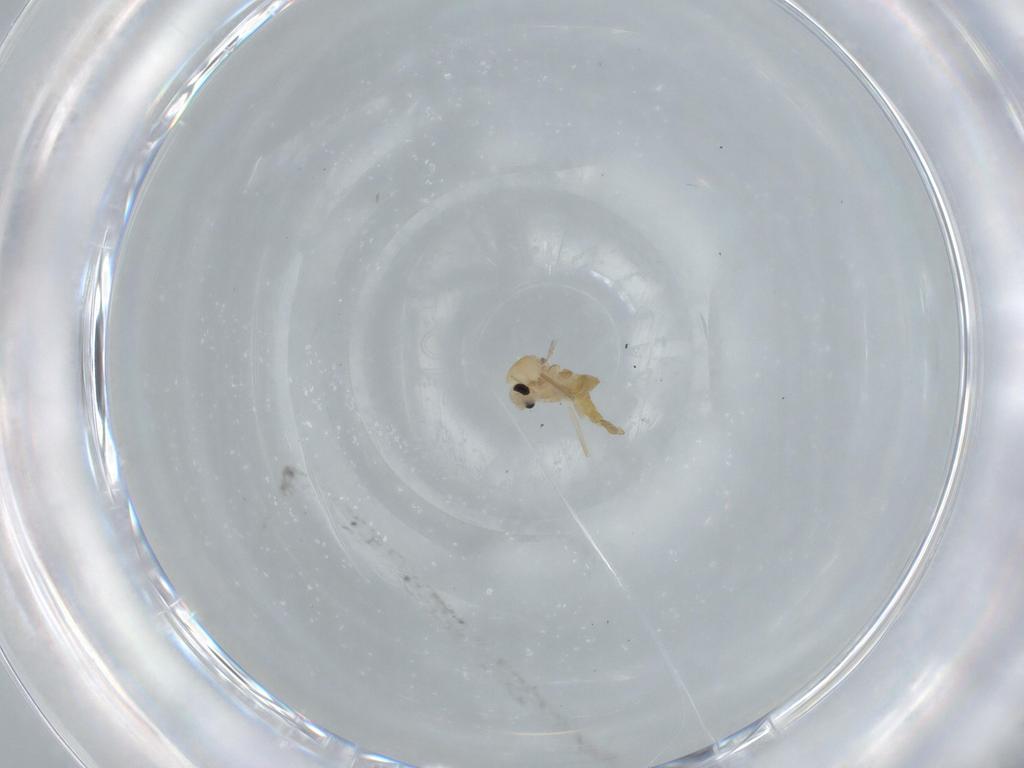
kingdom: Animalia
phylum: Arthropoda
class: Insecta
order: Diptera
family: Chironomidae
